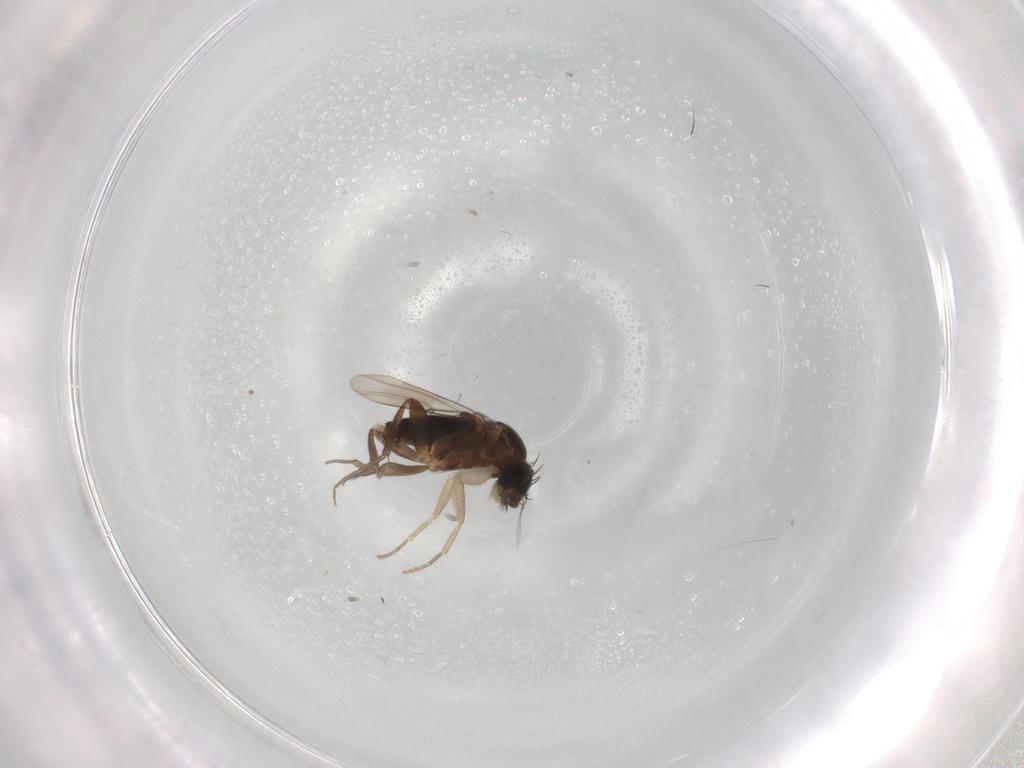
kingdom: Animalia
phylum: Arthropoda
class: Insecta
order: Diptera
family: Phoridae
